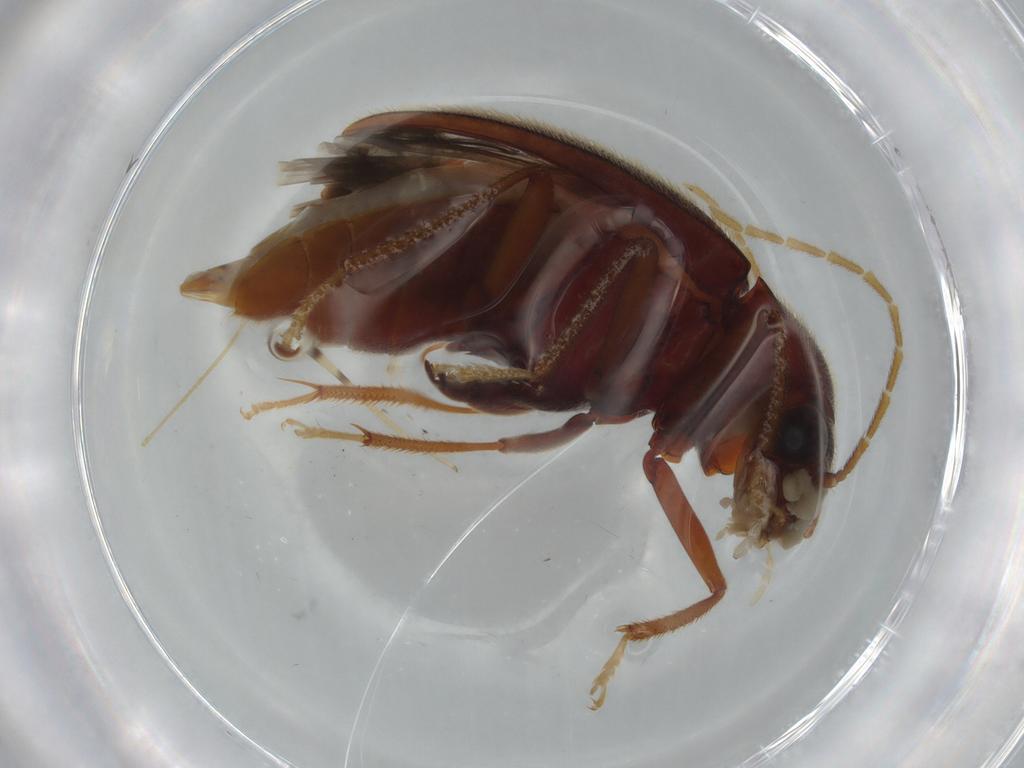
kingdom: Animalia
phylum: Arthropoda
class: Insecta
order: Coleoptera
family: Ptilodactylidae
